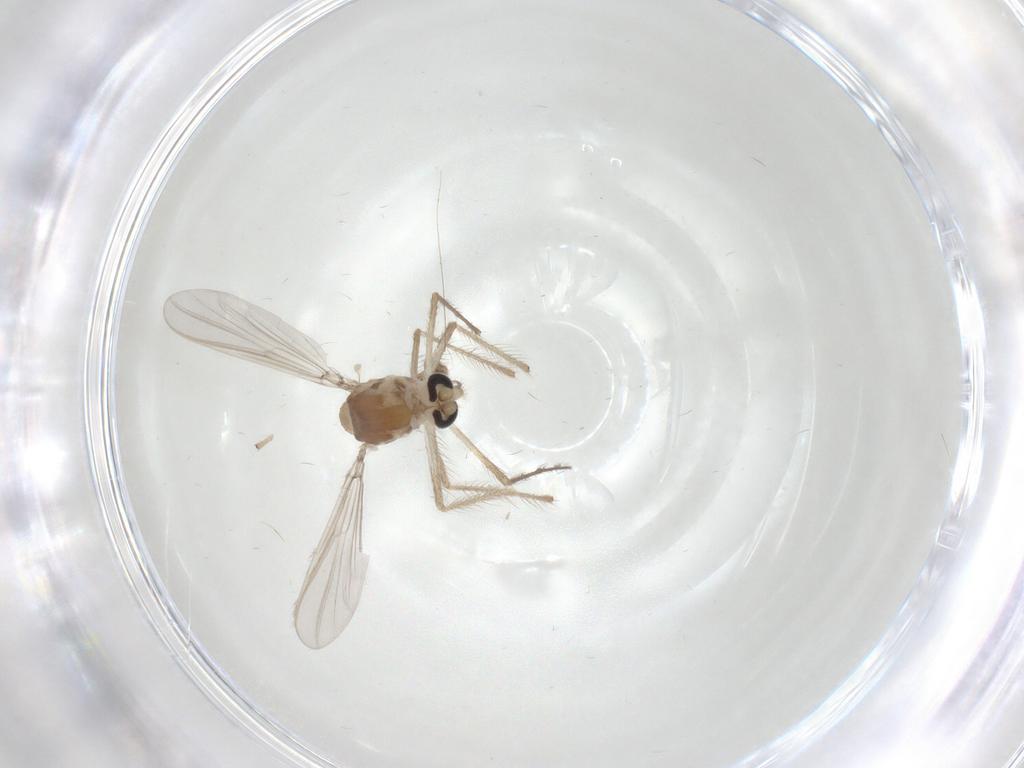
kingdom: Animalia
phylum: Arthropoda
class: Insecta
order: Diptera
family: Chironomidae
